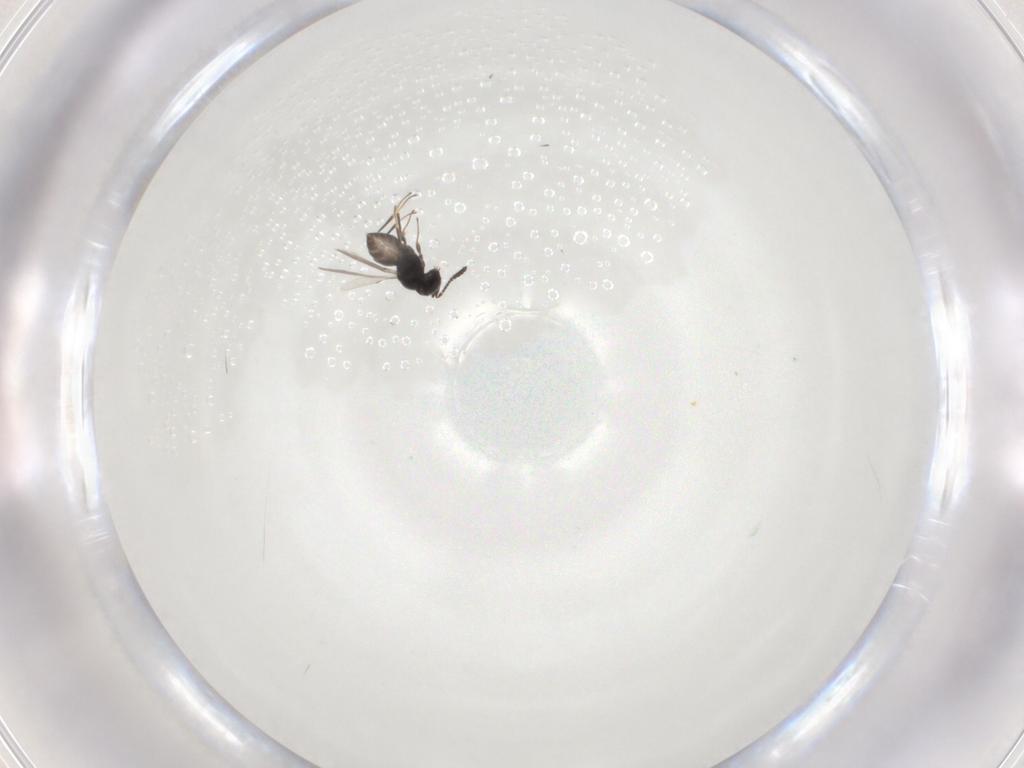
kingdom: Animalia
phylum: Arthropoda
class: Insecta
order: Hymenoptera
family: Scelionidae
